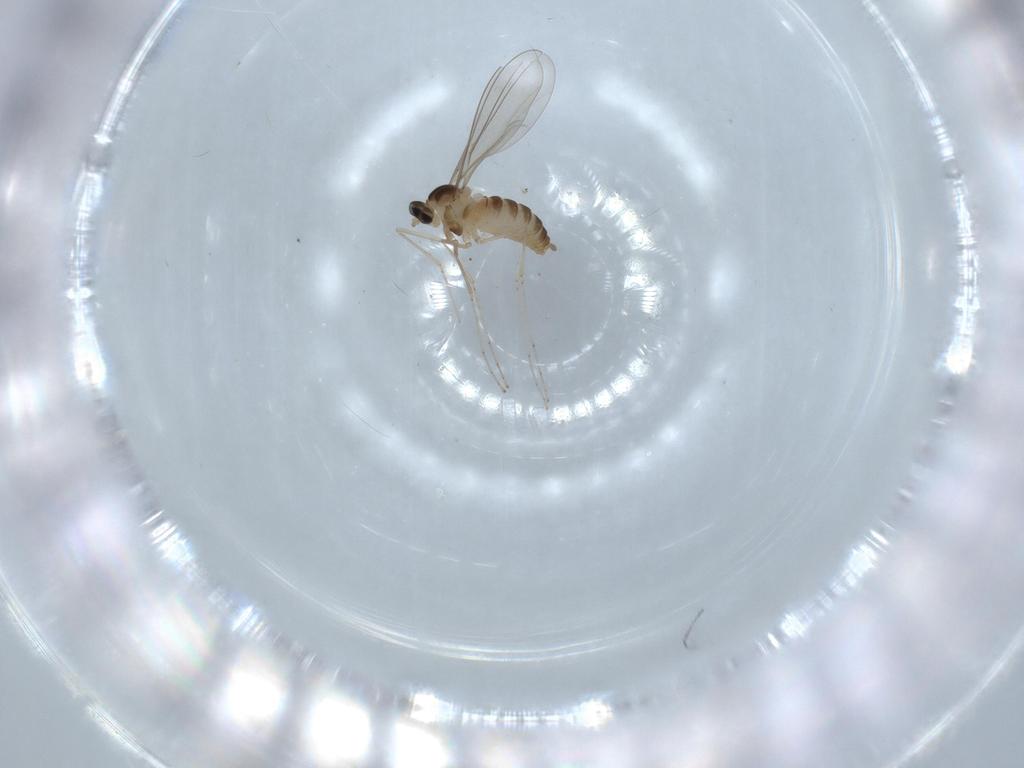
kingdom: Animalia
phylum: Arthropoda
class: Insecta
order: Diptera
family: Cecidomyiidae
